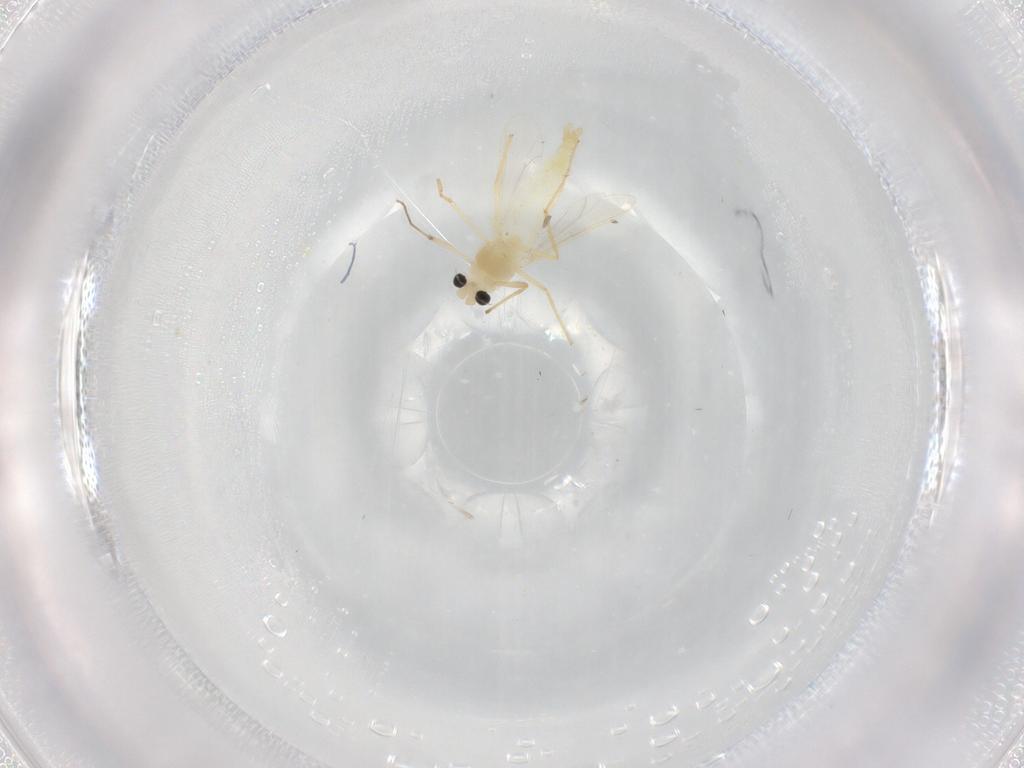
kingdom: Animalia
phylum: Arthropoda
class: Insecta
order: Diptera
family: Chironomidae
